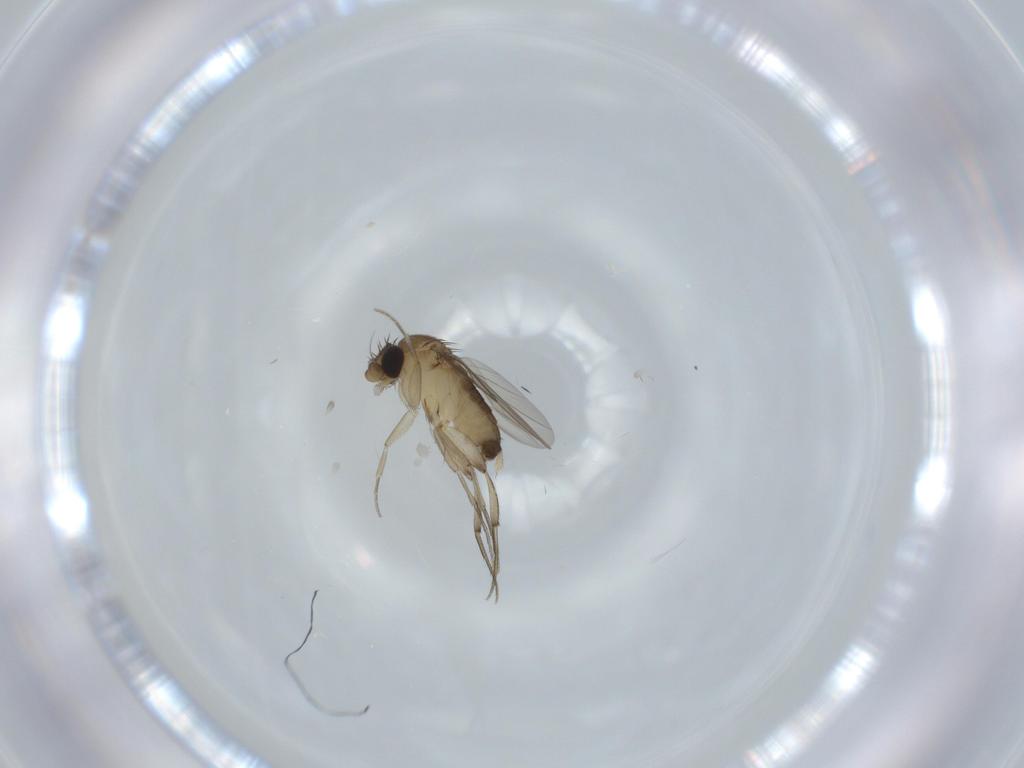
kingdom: Animalia
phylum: Arthropoda
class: Insecta
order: Diptera
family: Phoridae
